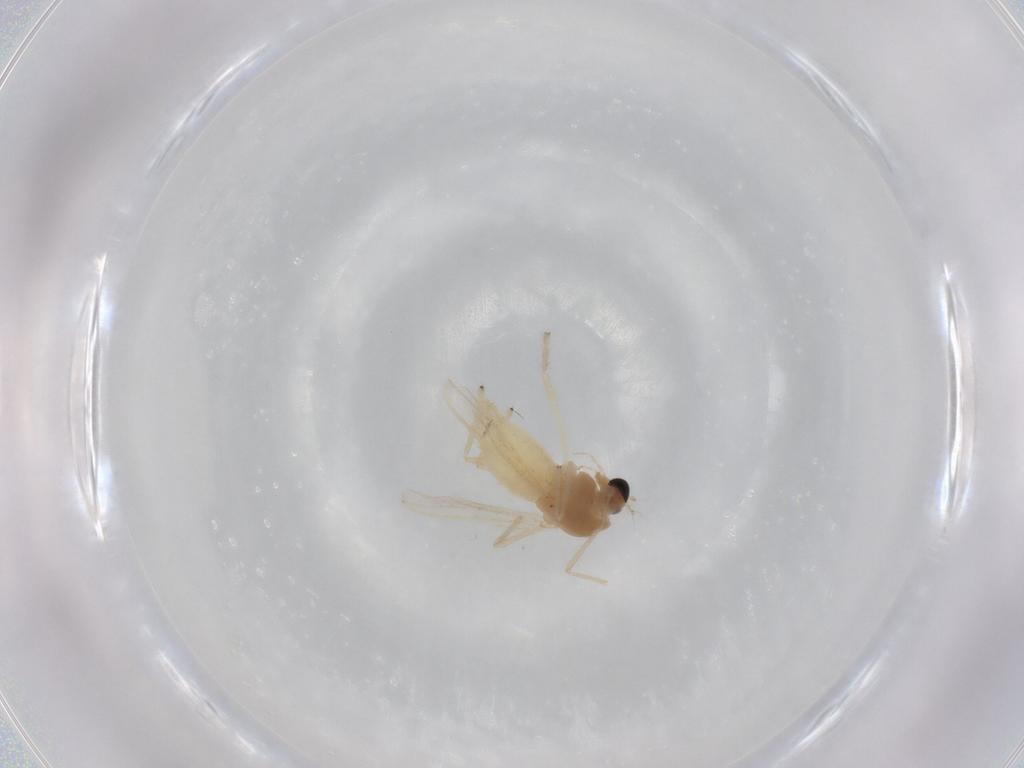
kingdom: Animalia
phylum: Arthropoda
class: Insecta
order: Diptera
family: Chironomidae
